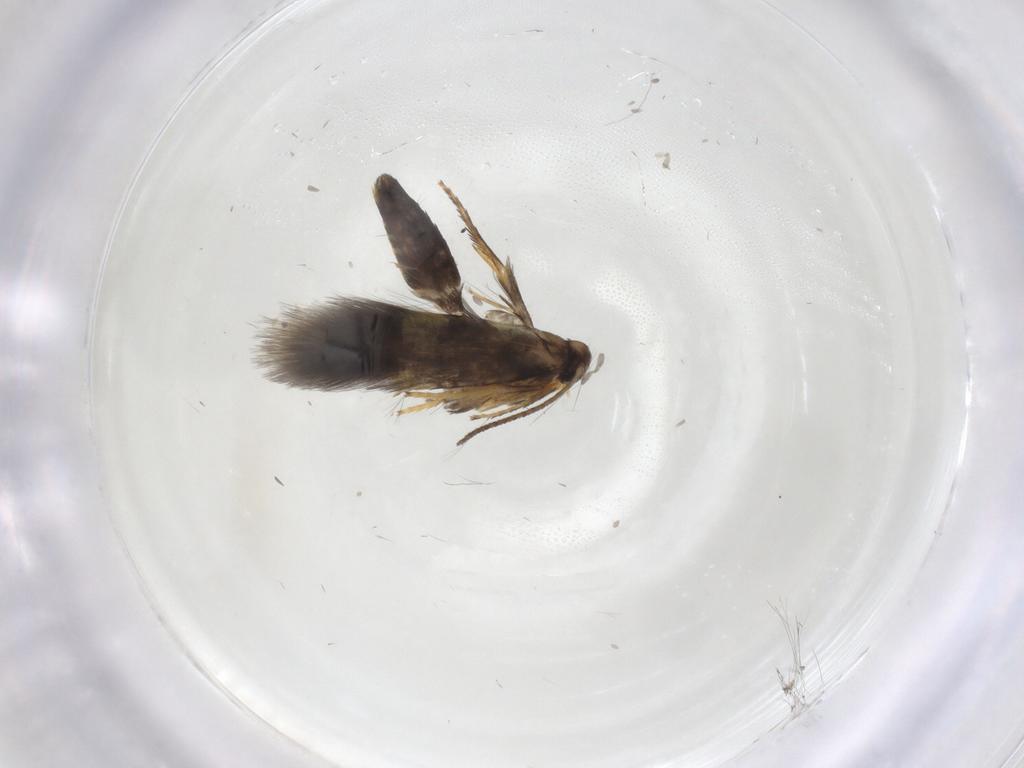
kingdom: Animalia
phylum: Arthropoda
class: Insecta
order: Lepidoptera
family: Heliozelidae
